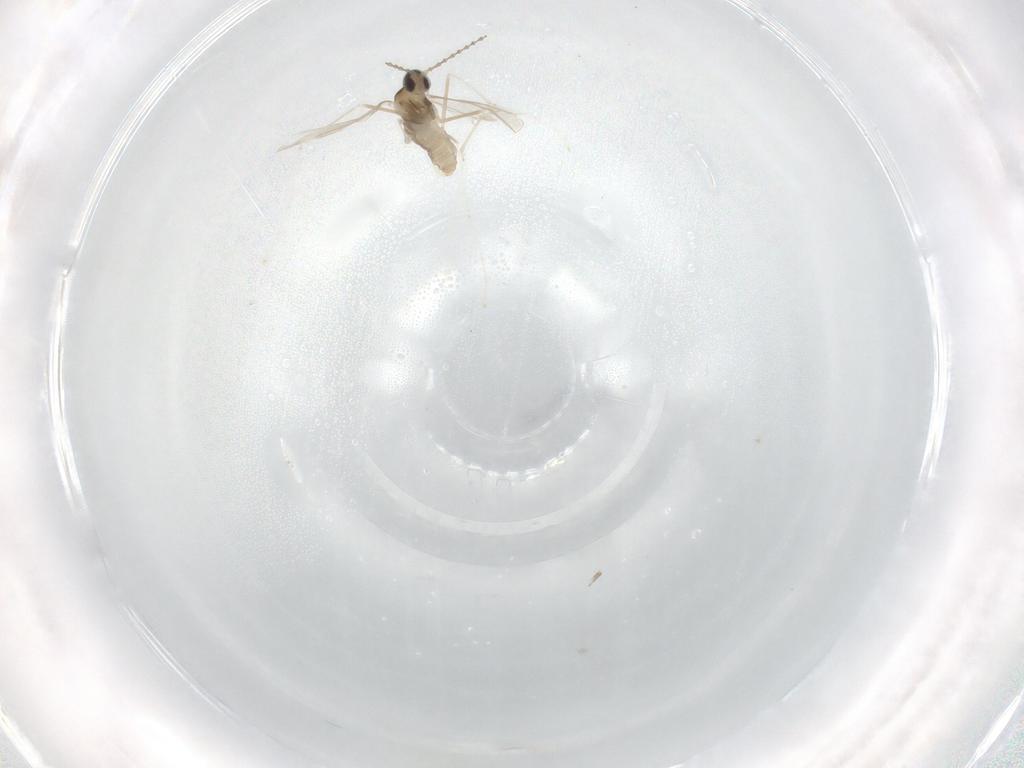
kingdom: Animalia
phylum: Arthropoda
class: Insecta
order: Diptera
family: Cecidomyiidae
